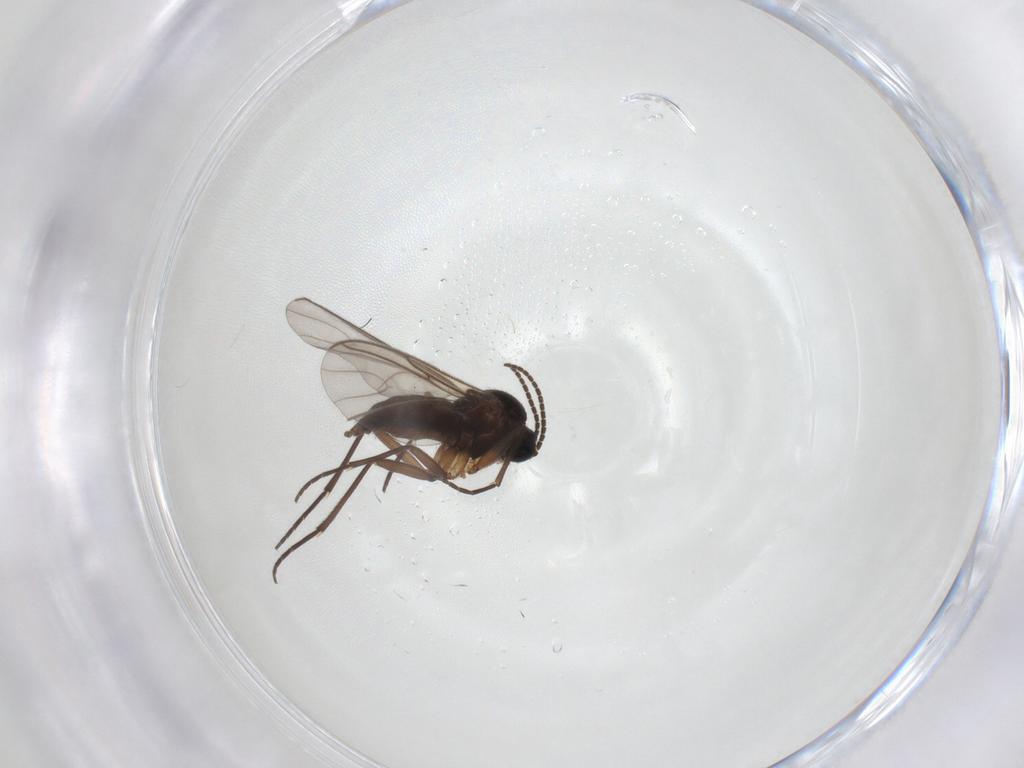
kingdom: Animalia
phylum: Arthropoda
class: Insecta
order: Diptera
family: Sciaridae
